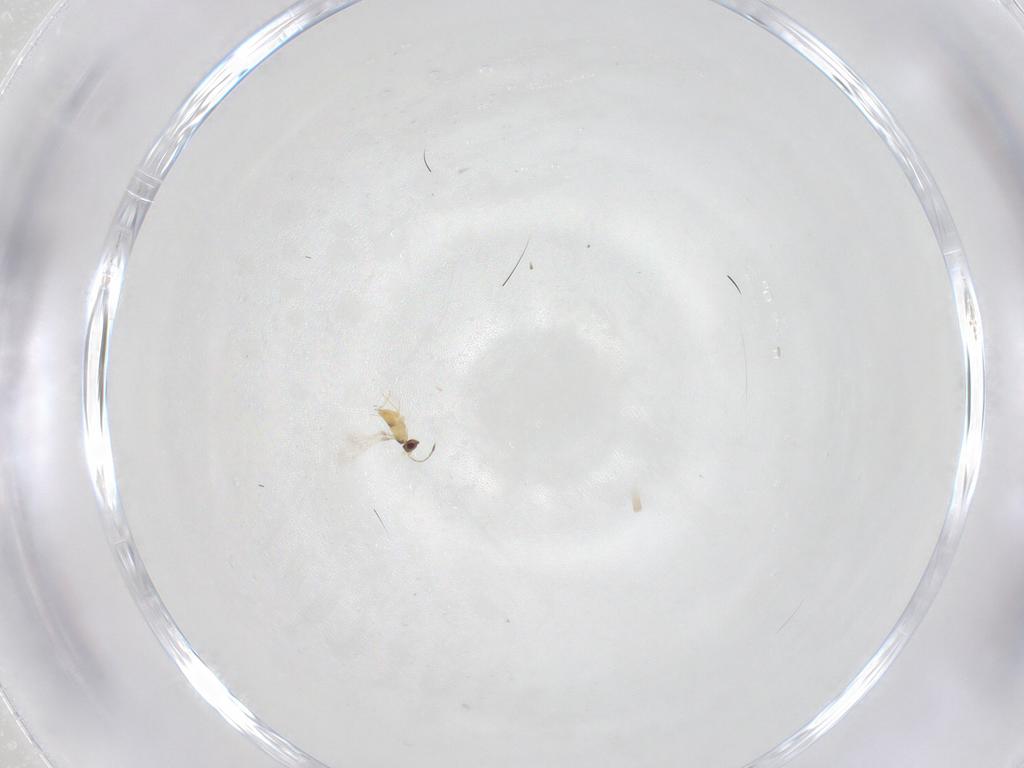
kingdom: Animalia
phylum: Arthropoda
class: Insecta
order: Hymenoptera
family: Mymaridae
